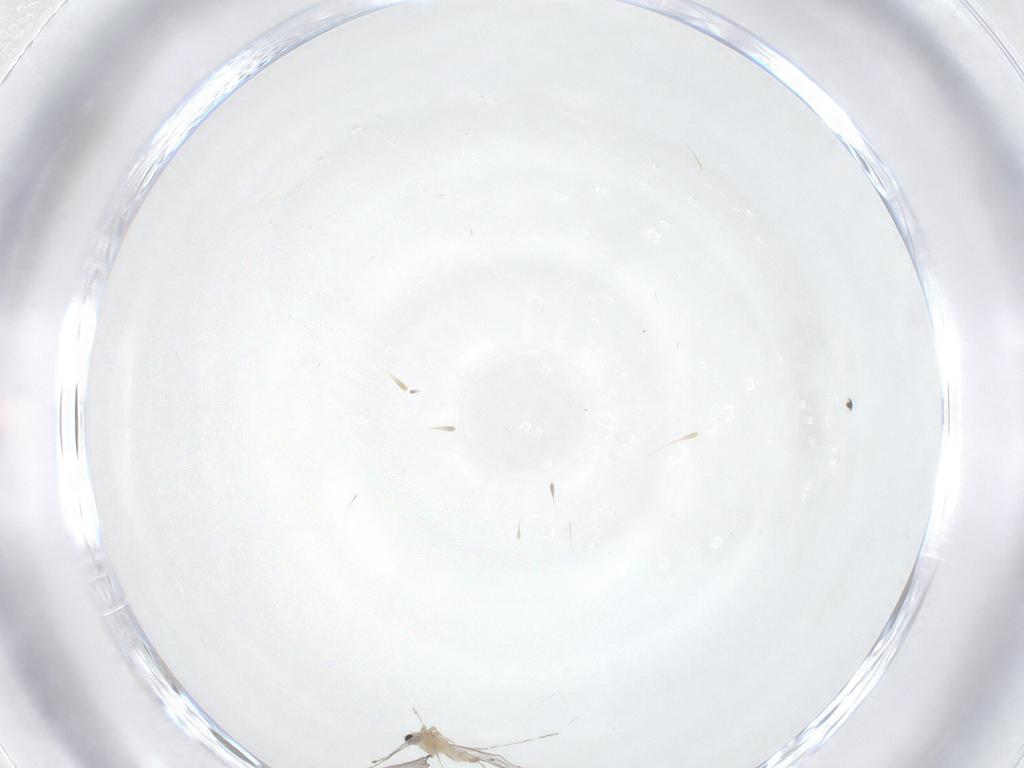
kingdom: Animalia
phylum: Arthropoda
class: Insecta
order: Diptera
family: Cecidomyiidae
